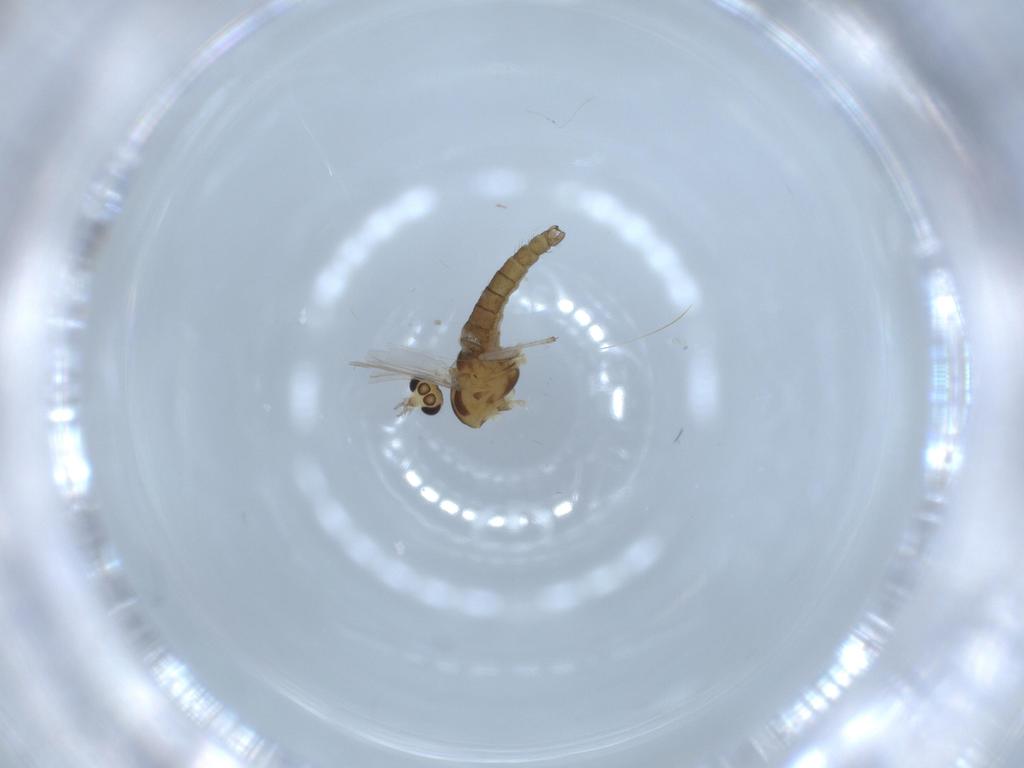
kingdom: Animalia
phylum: Arthropoda
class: Insecta
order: Diptera
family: Chironomidae
